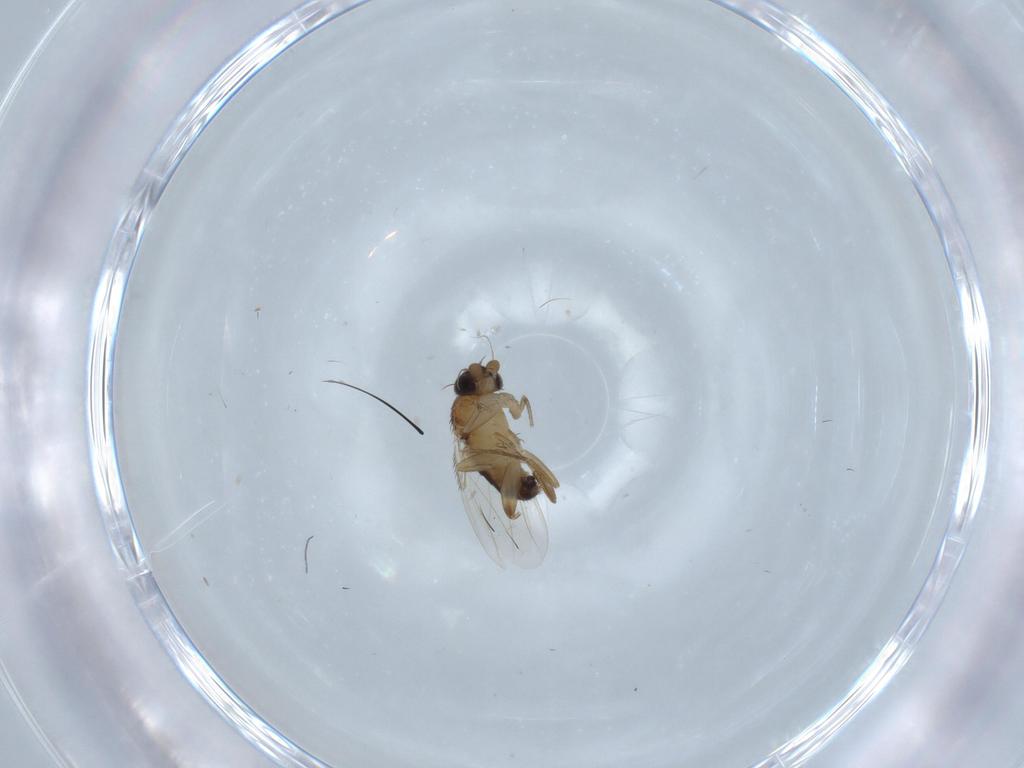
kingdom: Animalia
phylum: Arthropoda
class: Insecta
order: Diptera
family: Phoridae
